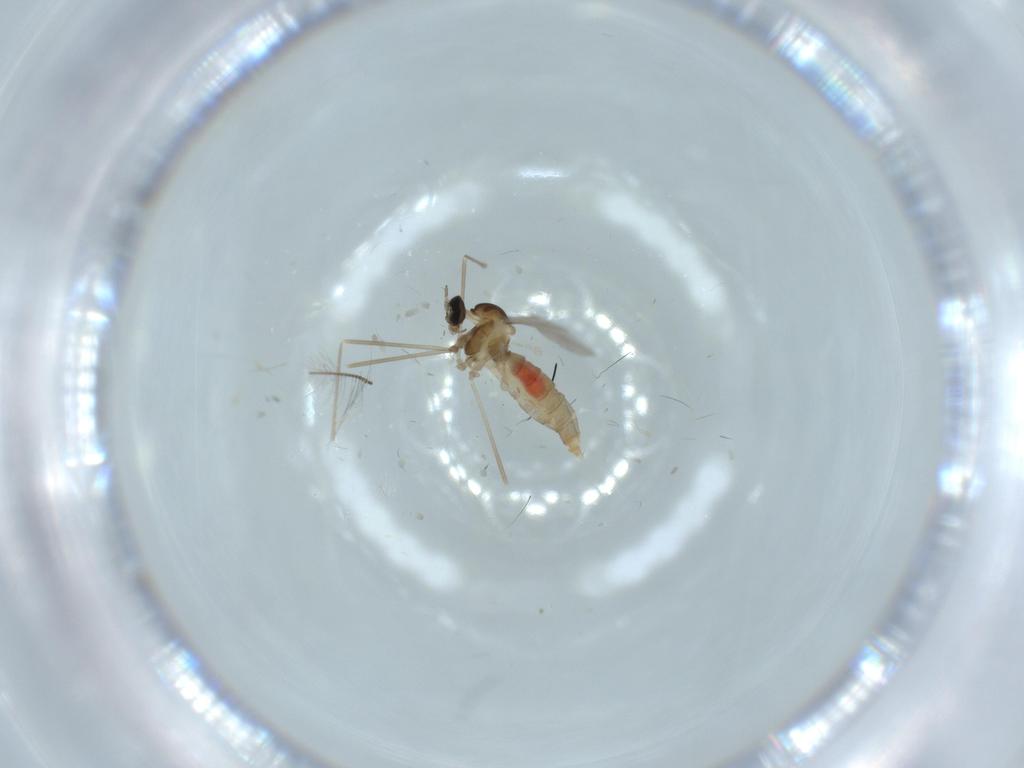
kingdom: Animalia
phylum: Arthropoda
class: Insecta
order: Diptera
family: Cecidomyiidae
